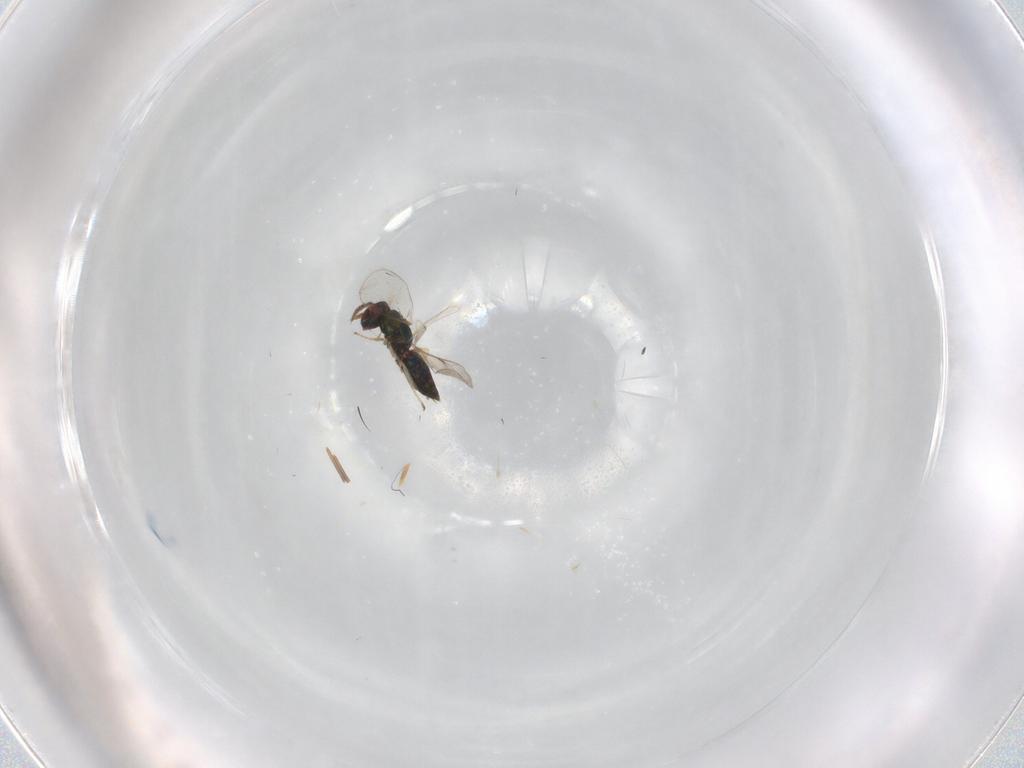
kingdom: Animalia
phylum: Arthropoda
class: Insecta
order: Hymenoptera
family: Eulophidae
